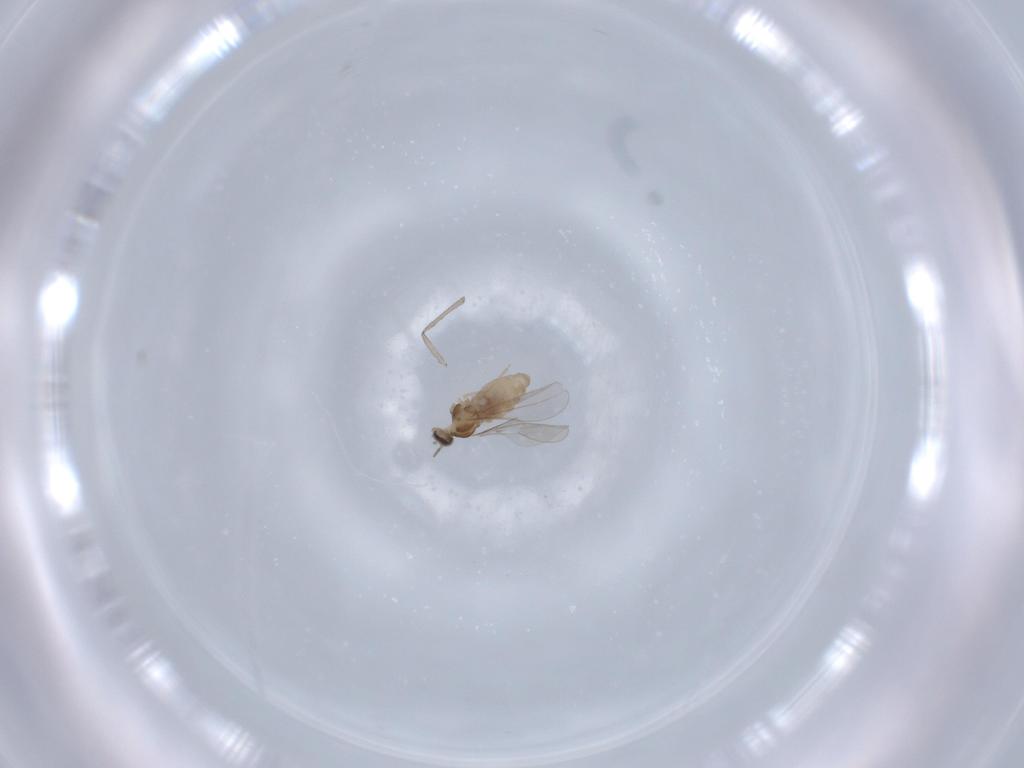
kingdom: Animalia
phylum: Arthropoda
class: Insecta
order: Diptera
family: Cecidomyiidae
